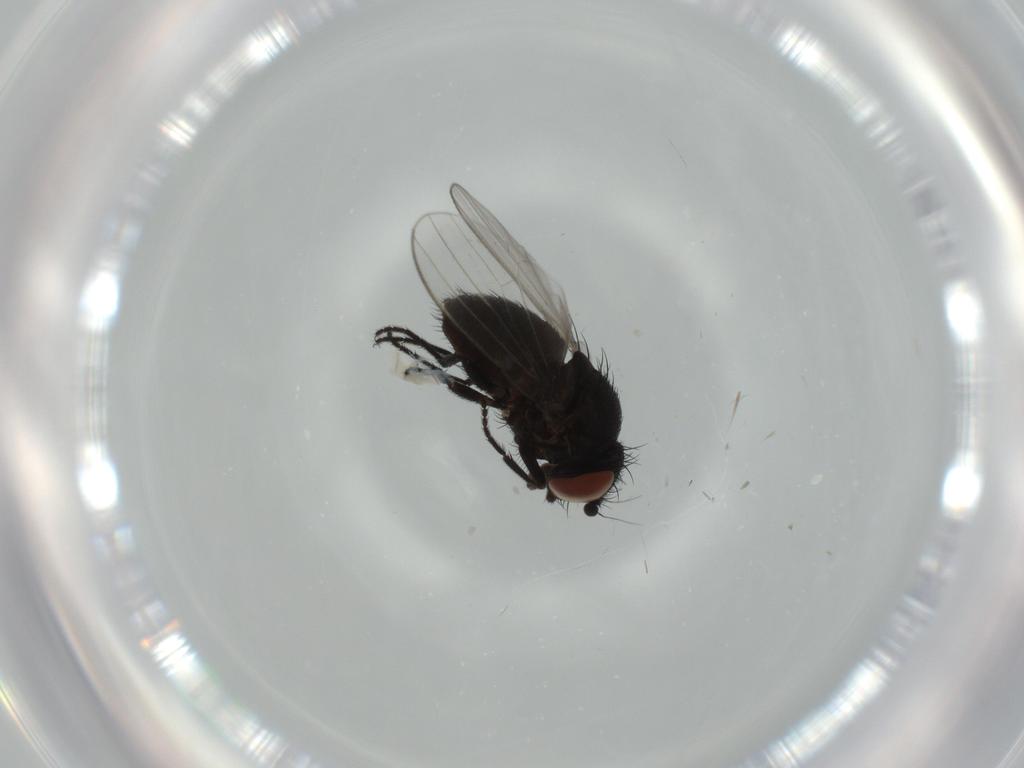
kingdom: Animalia
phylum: Arthropoda
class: Insecta
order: Diptera
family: Milichiidae
